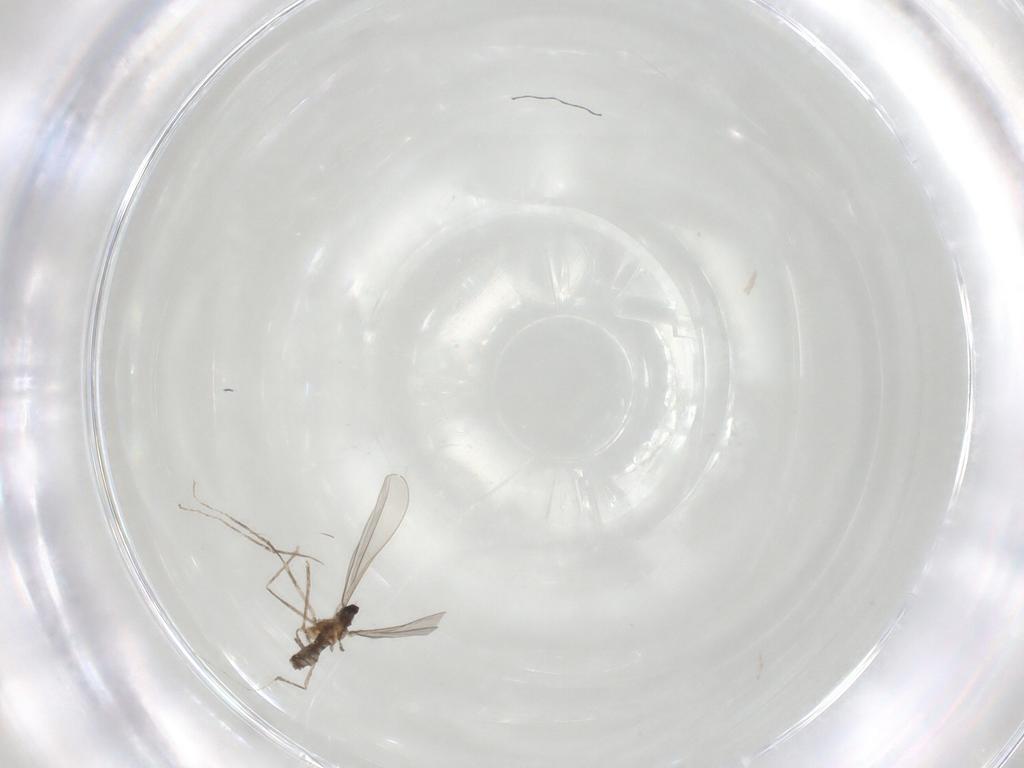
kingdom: Animalia
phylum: Arthropoda
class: Insecta
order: Diptera
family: Cecidomyiidae
